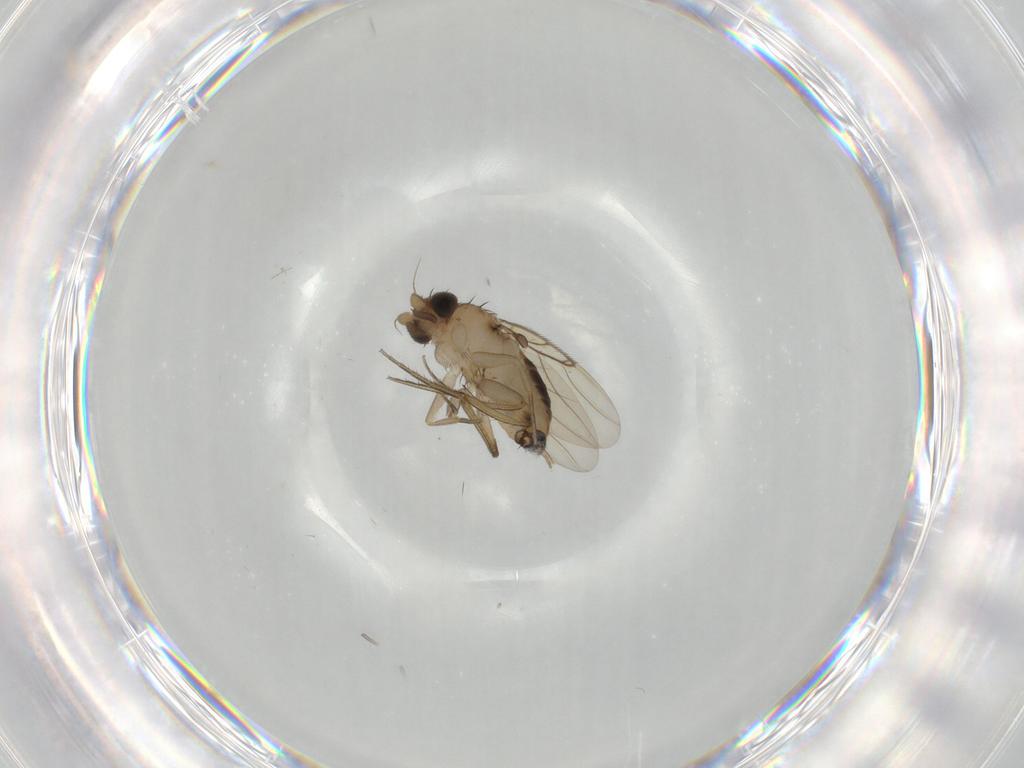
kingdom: Animalia
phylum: Arthropoda
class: Insecta
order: Diptera
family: Phoridae
